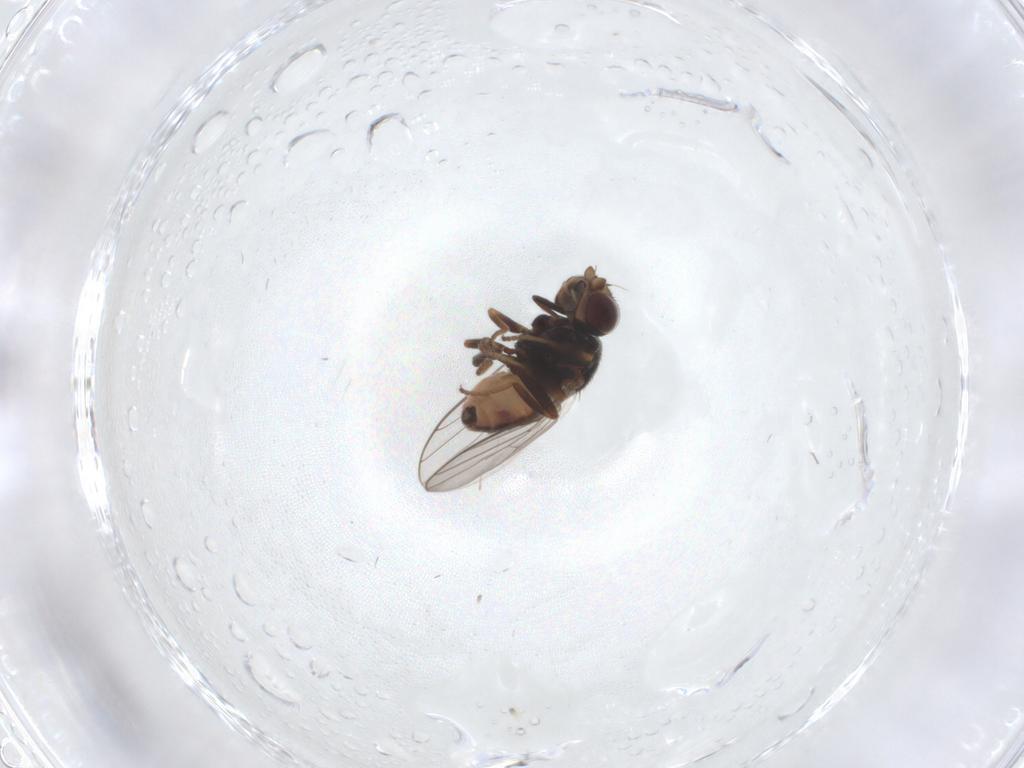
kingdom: Animalia
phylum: Arthropoda
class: Insecta
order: Diptera
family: Chloropidae
